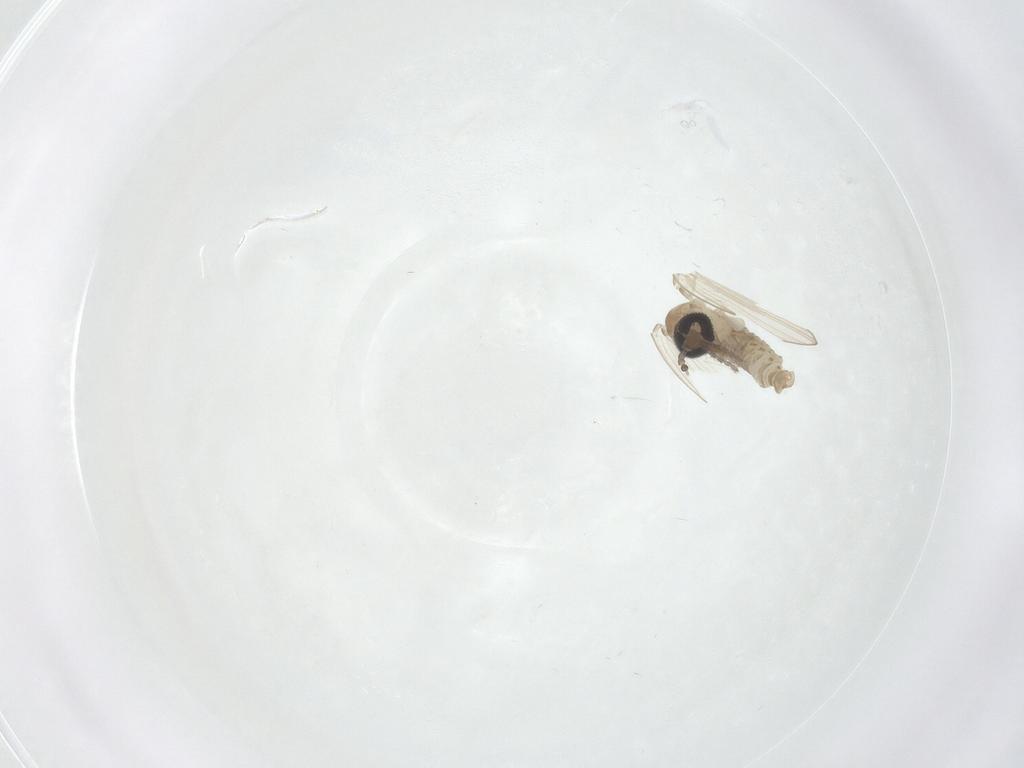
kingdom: Animalia
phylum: Arthropoda
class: Insecta
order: Diptera
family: Psychodidae
